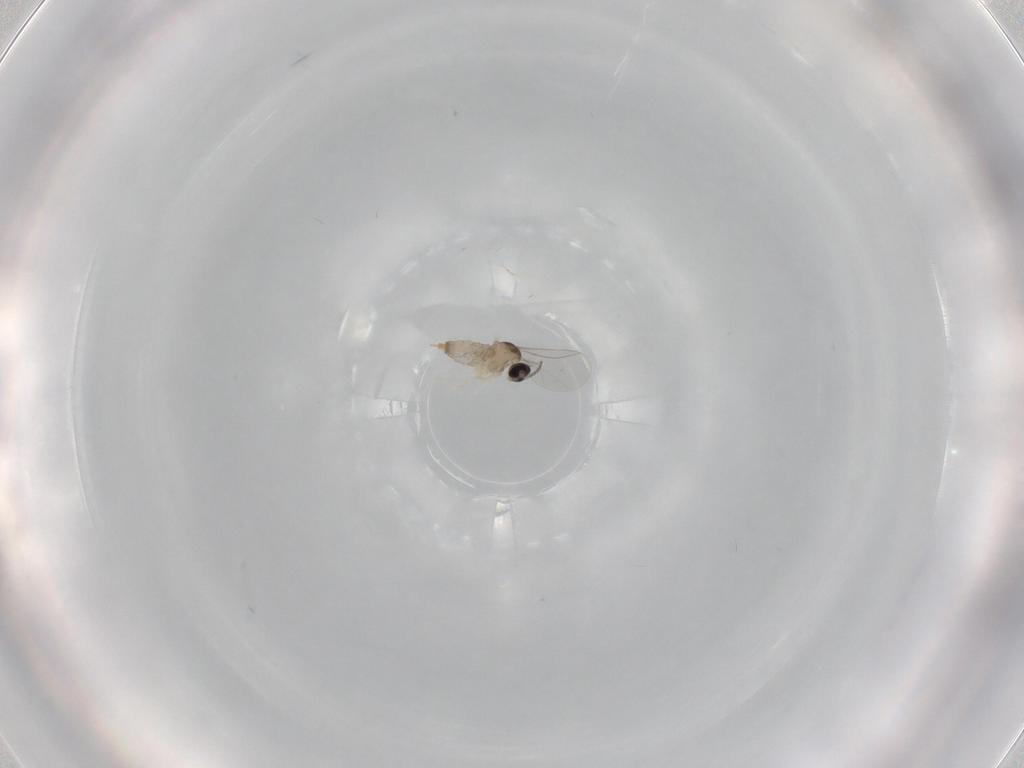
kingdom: Animalia
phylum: Arthropoda
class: Insecta
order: Diptera
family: Cecidomyiidae
